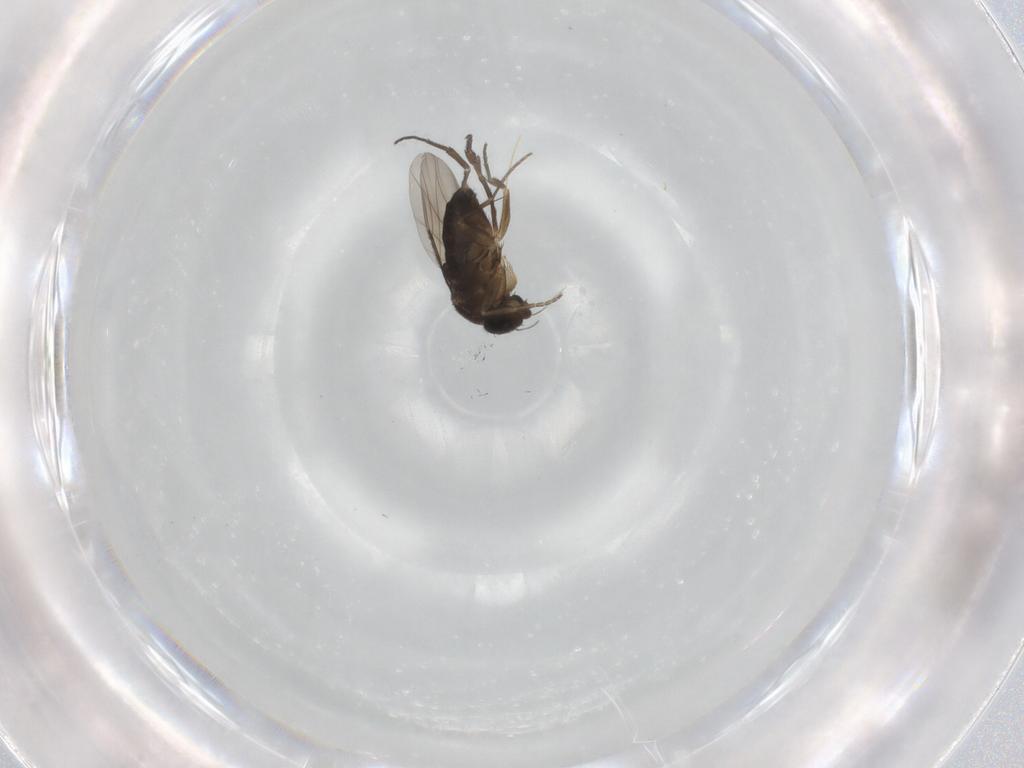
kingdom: Animalia
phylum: Arthropoda
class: Insecta
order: Diptera
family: Phoridae
